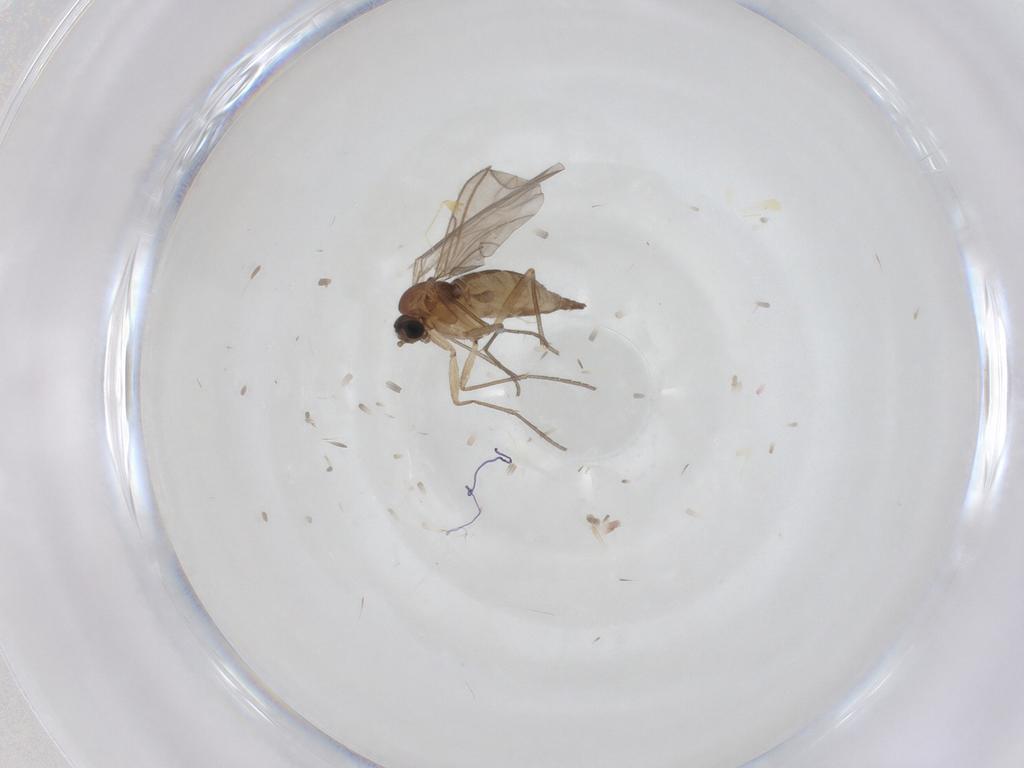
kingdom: Animalia
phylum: Arthropoda
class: Insecta
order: Diptera
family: Sciaridae
